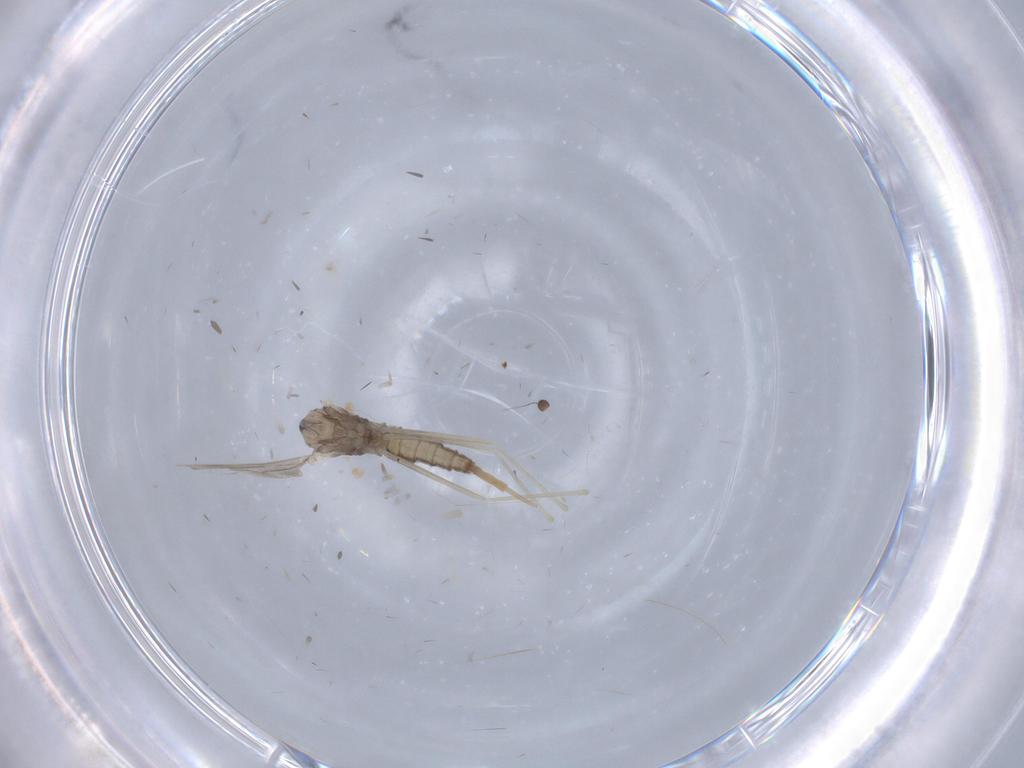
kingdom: Animalia
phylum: Arthropoda
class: Insecta
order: Diptera
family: Cecidomyiidae
